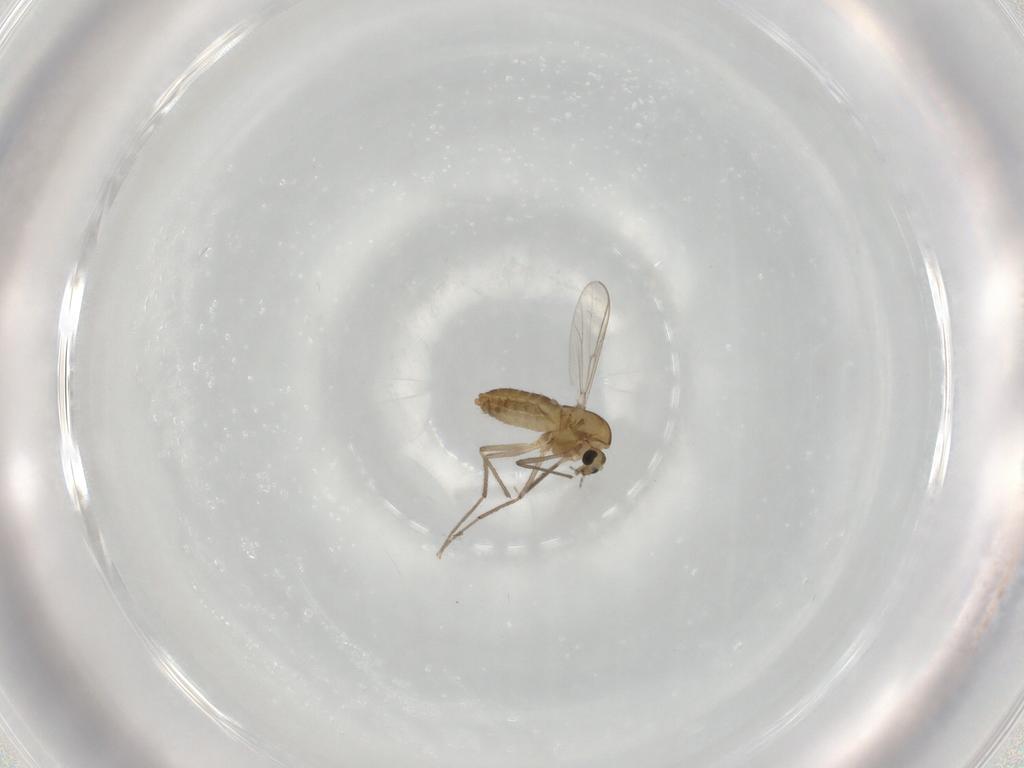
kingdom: Animalia
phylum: Arthropoda
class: Insecta
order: Diptera
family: Chironomidae
